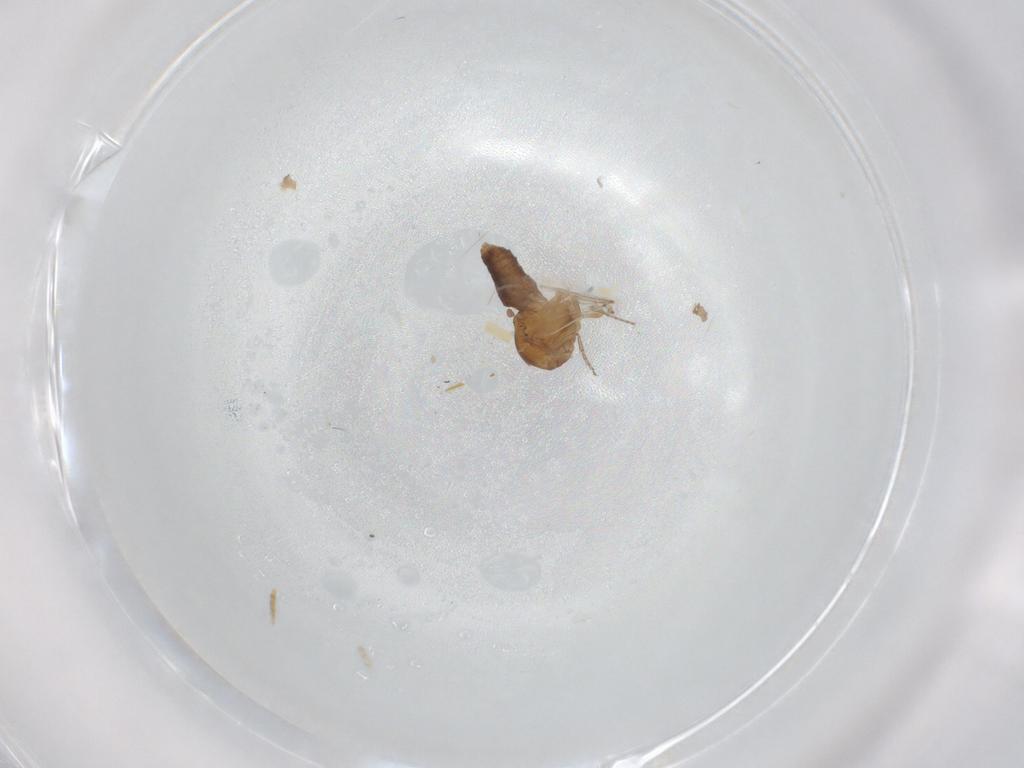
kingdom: Animalia
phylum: Arthropoda
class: Insecta
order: Diptera
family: Ceratopogonidae
